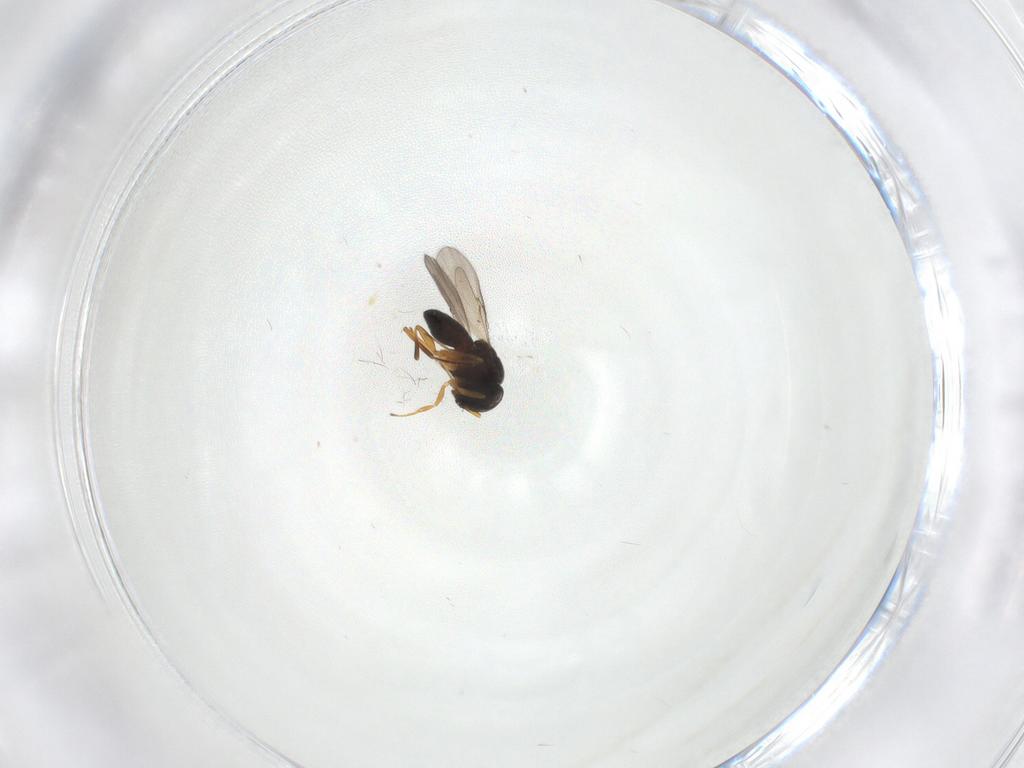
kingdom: Animalia
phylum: Arthropoda
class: Insecta
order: Hymenoptera
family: Scelionidae
